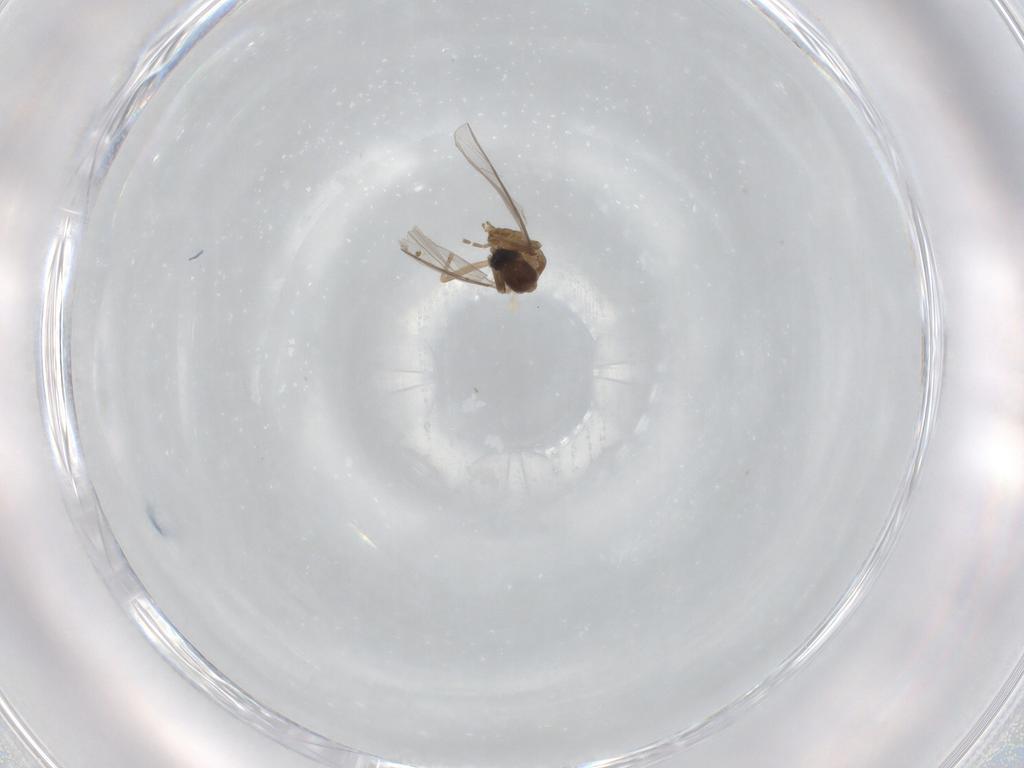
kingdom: Animalia
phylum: Arthropoda
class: Insecta
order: Diptera
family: Cecidomyiidae
